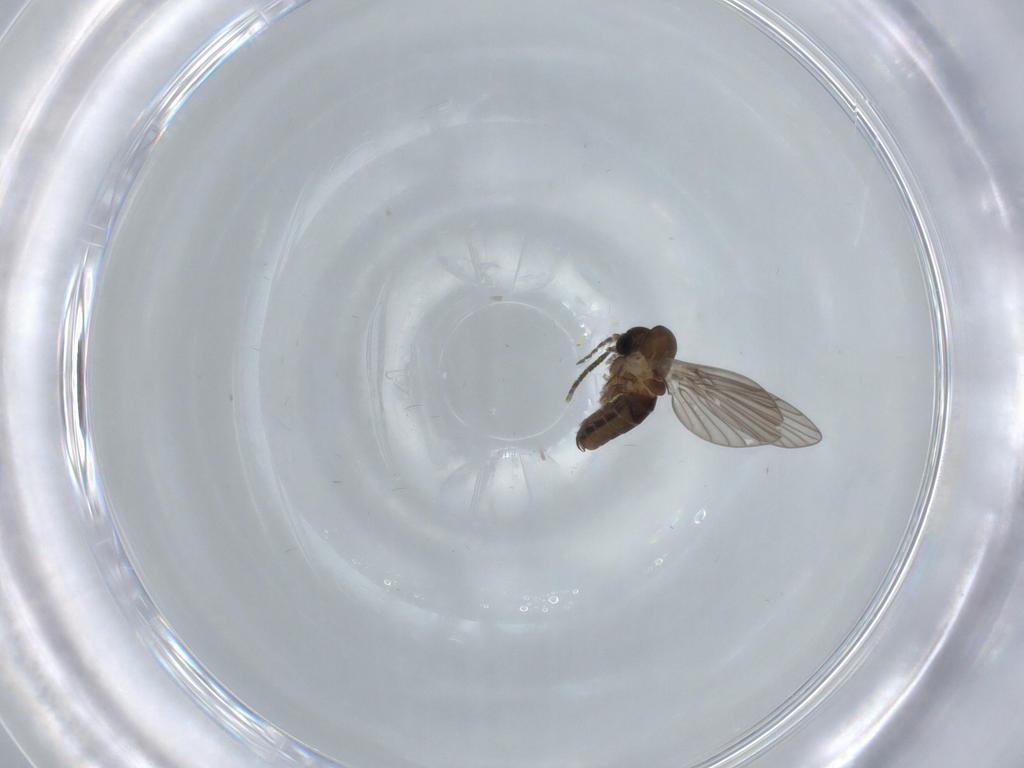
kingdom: Animalia
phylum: Arthropoda
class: Insecta
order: Diptera
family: Psychodidae
